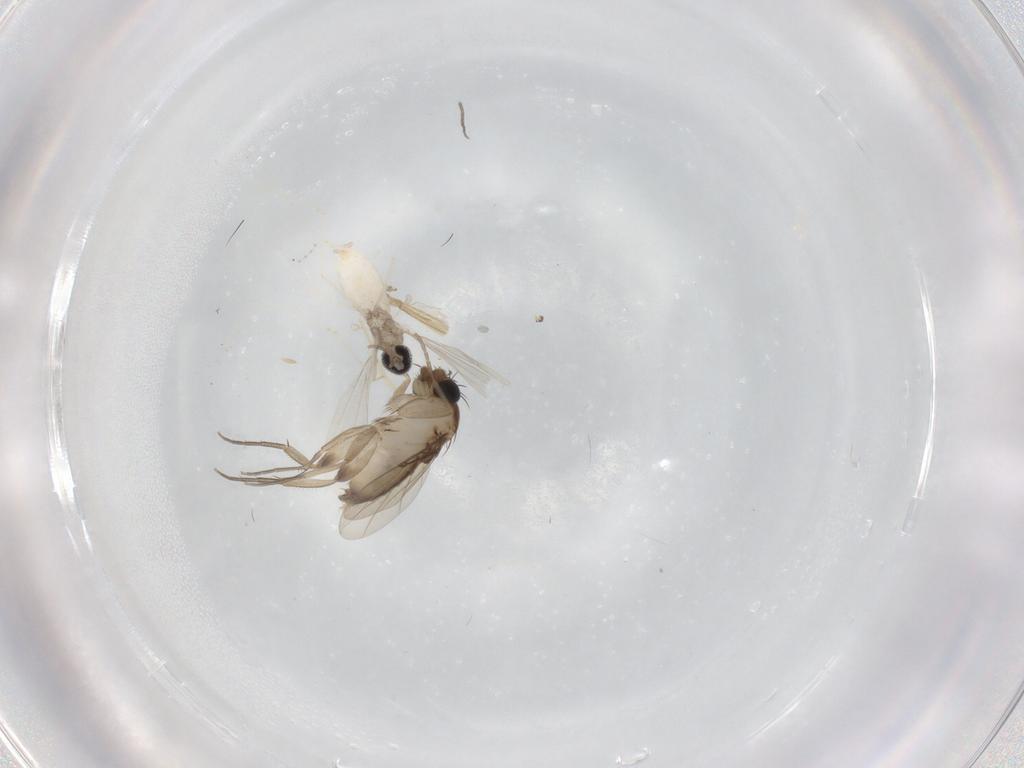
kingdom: Animalia
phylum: Arthropoda
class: Insecta
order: Diptera
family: Phoridae
